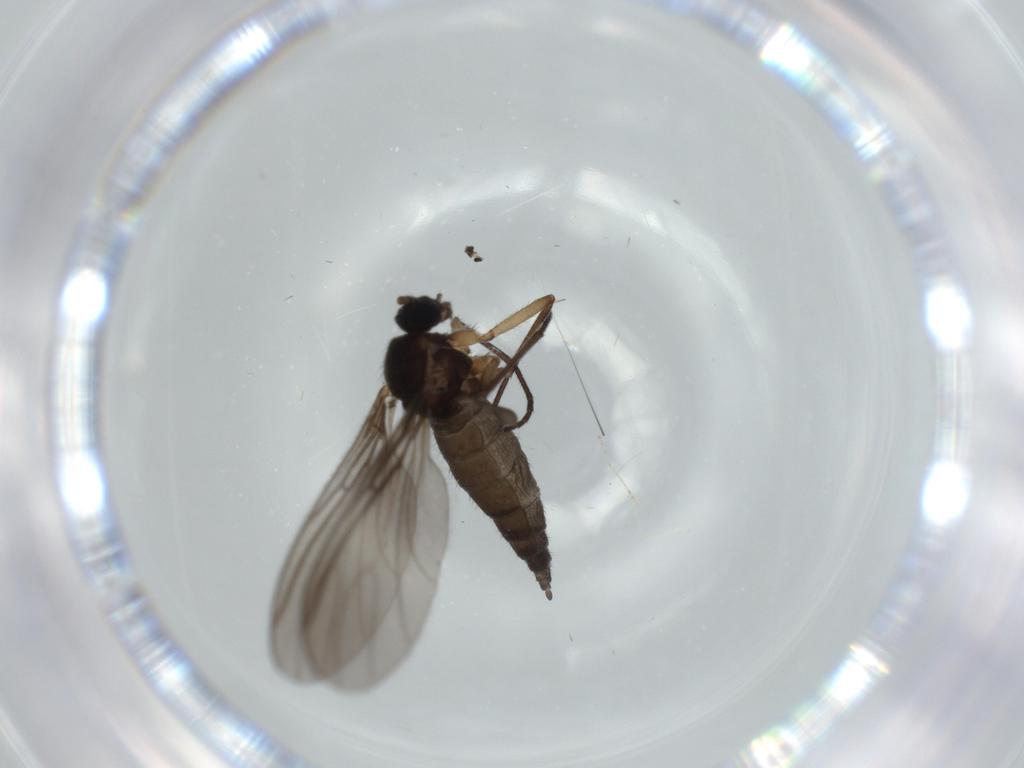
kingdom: Animalia
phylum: Arthropoda
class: Insecta
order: Diptera
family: Sciaridae
